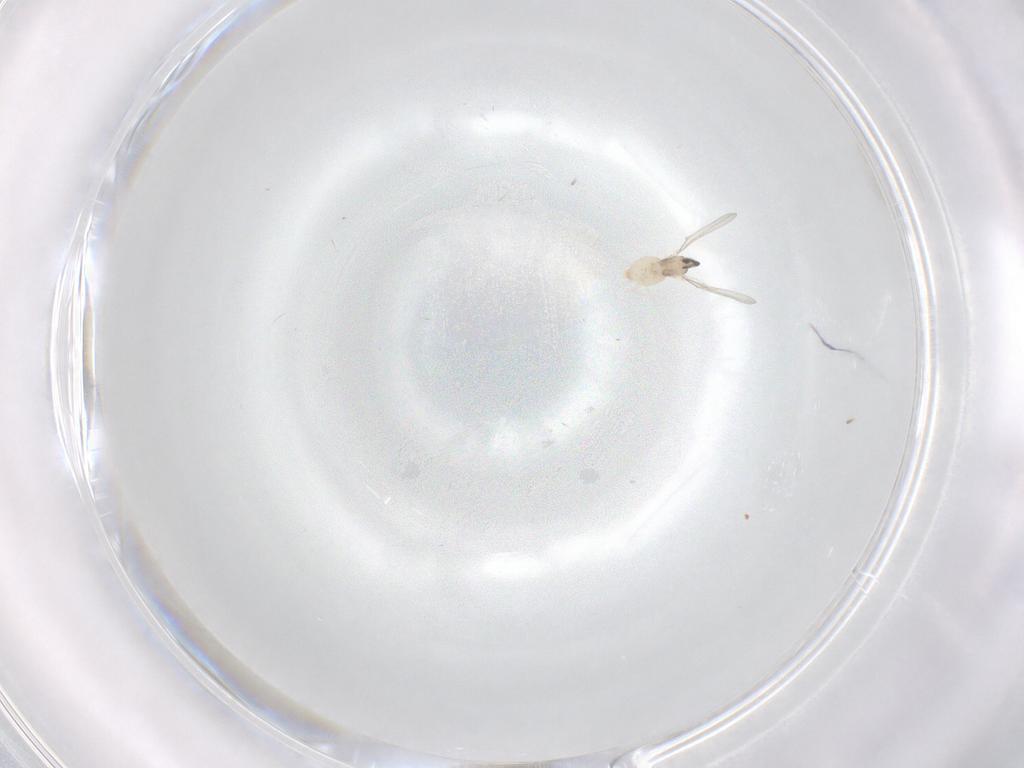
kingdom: Animalia
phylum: Arthropoda
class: Insecta
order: Diptera
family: Cecidomyiidae
